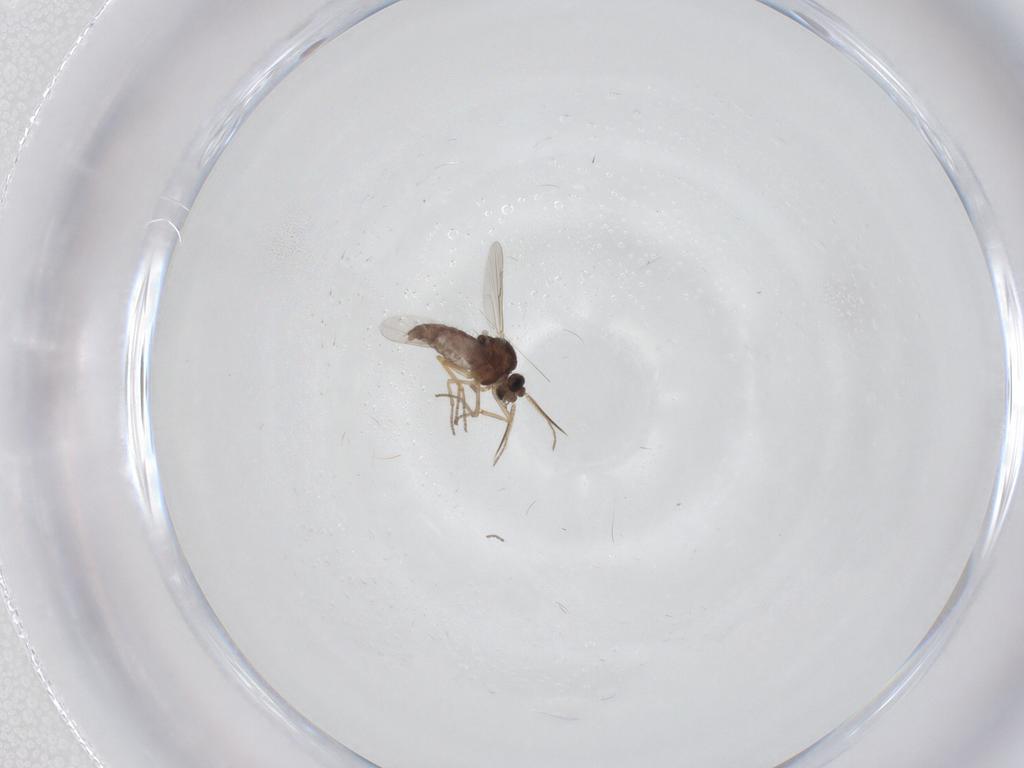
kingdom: Animalia
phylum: Arthropoda
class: Insecta
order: Diptera
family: Ceratopogonidae
